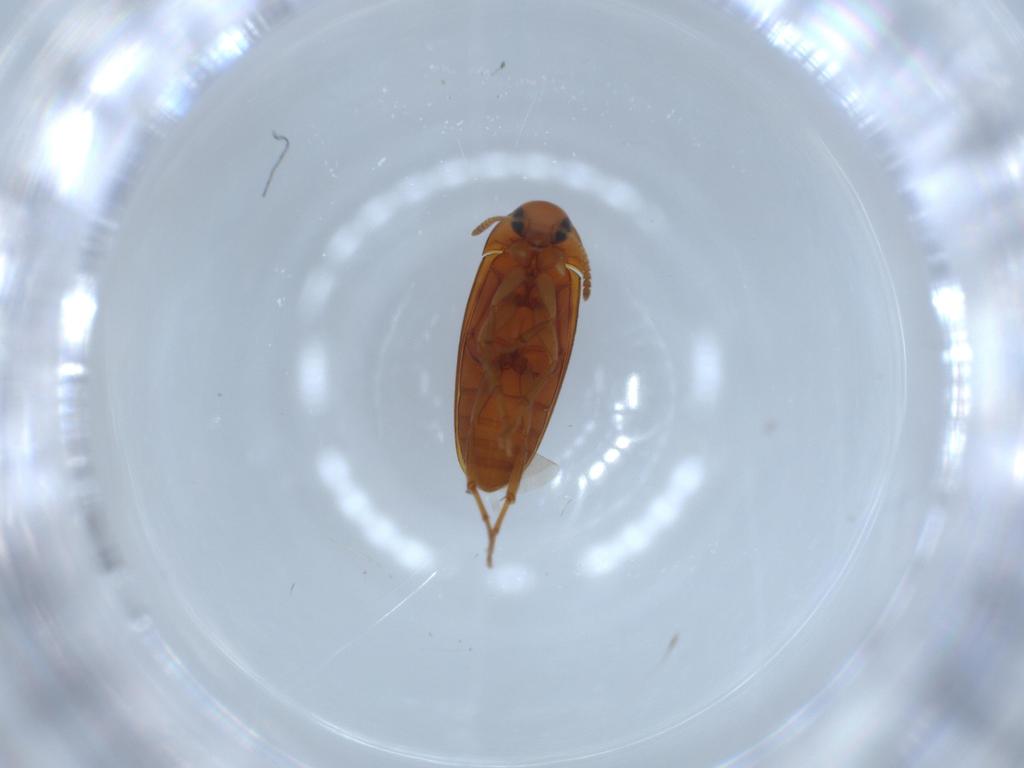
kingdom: Animalia
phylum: Arthropoda
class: Insecta
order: Coleoptera
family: Scraptiidae
